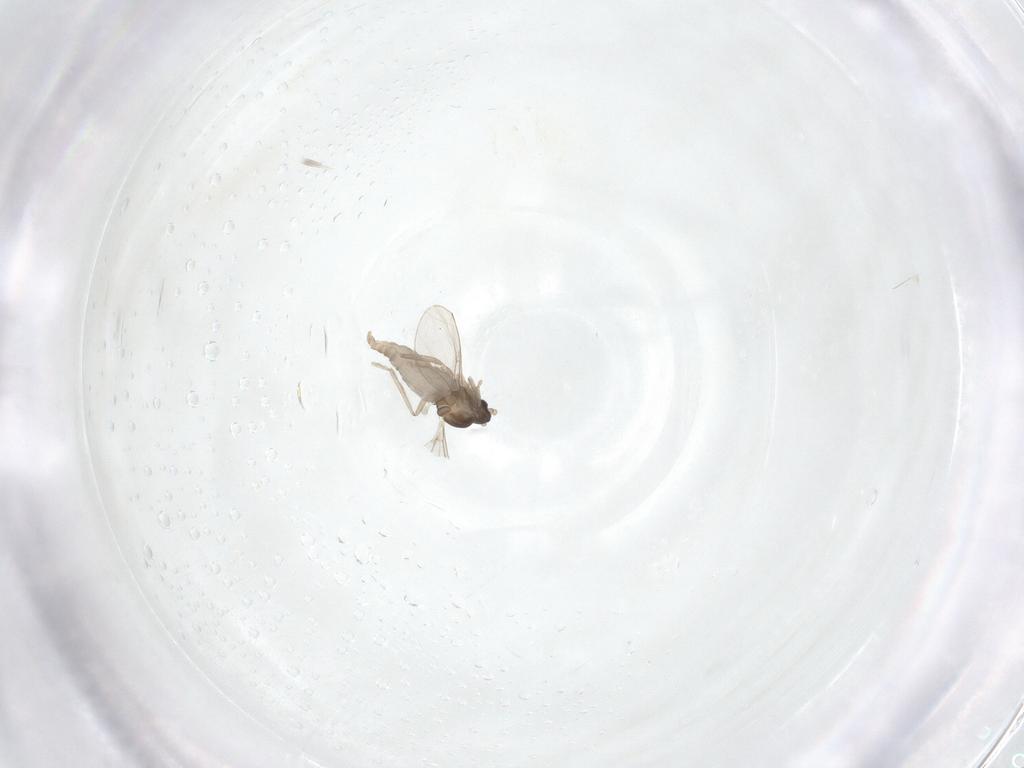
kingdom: Animalia
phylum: Arthropoda
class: Insecta
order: Diptera
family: Cecidomyiidae
